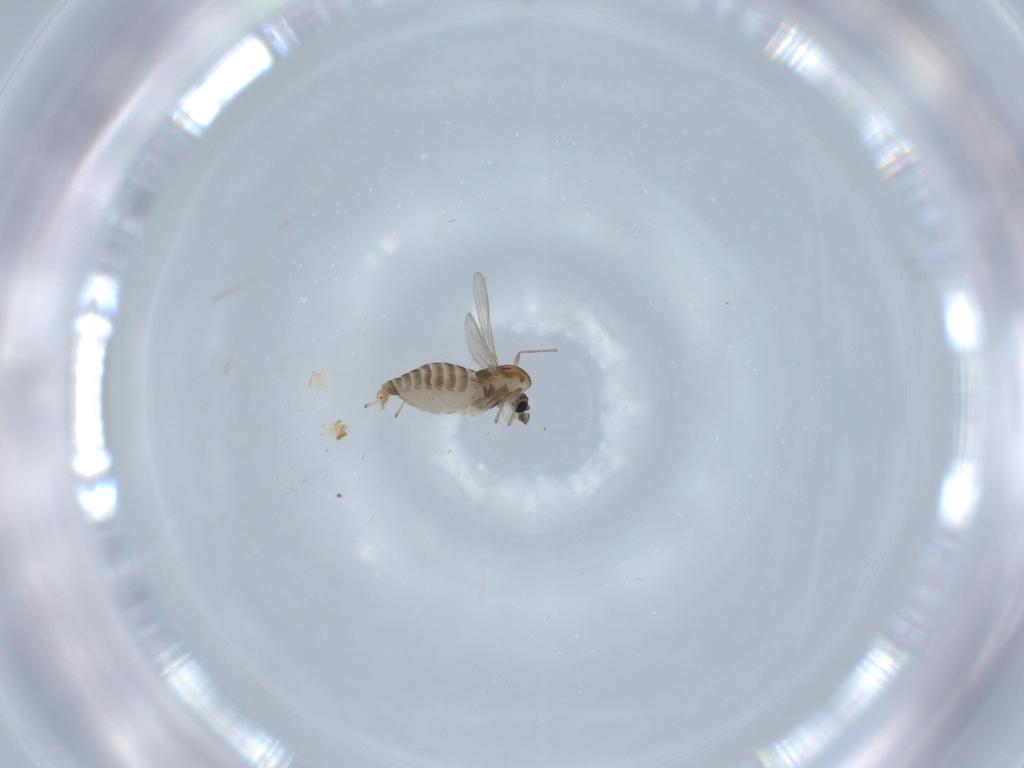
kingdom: Animalia
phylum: Arthropoda
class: Insecta
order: Diptera
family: Chironomidae
